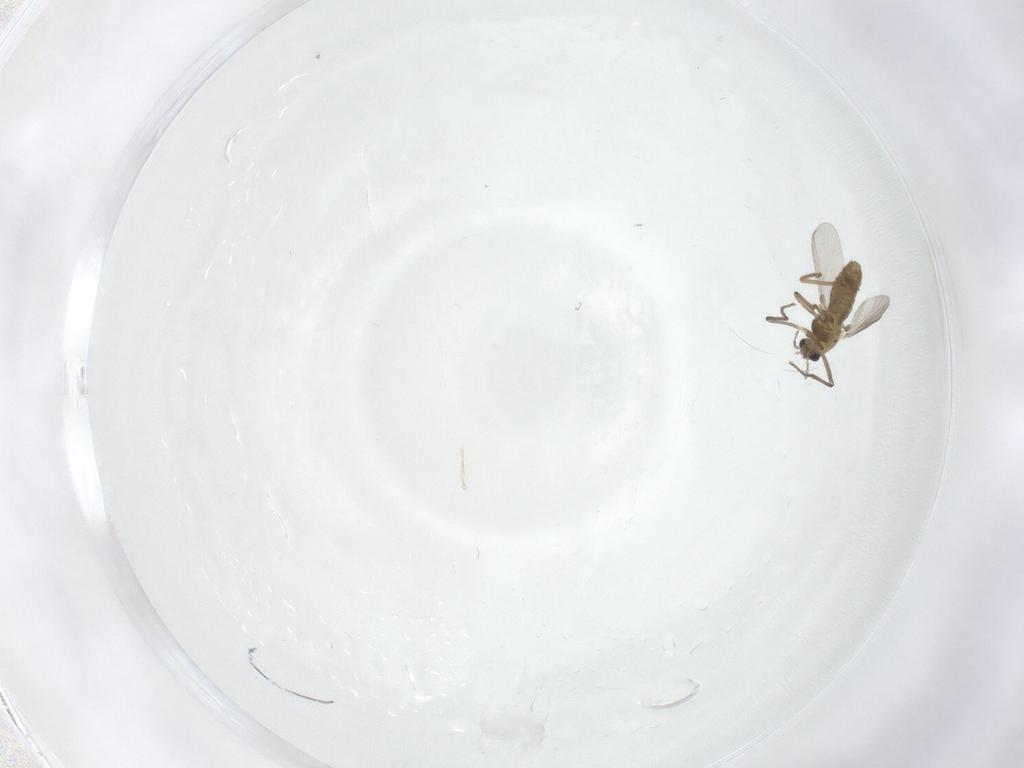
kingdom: Animalia
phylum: Arthropoda
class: Insecta
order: Diptera
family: Chironomidae
